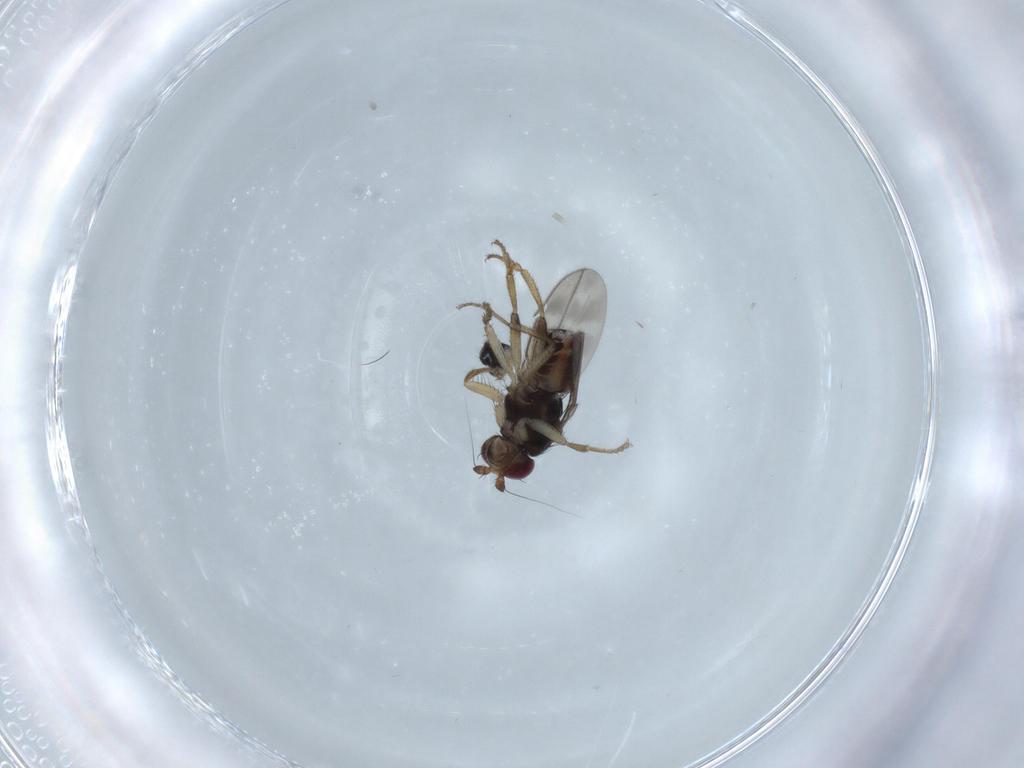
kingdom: Animalia
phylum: Arthropoda
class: Insecta
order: Diptera
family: Sphaeroceridae
